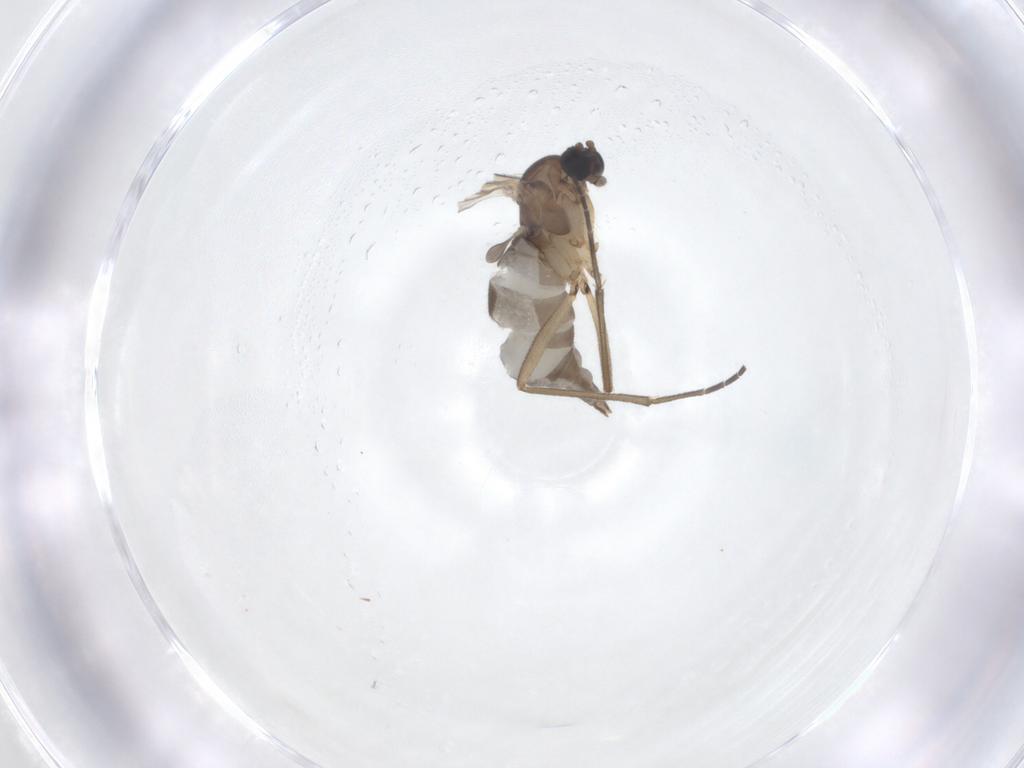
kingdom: Animalia
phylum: Arthropoda
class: Insecta
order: Diptera
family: Sciaridae
